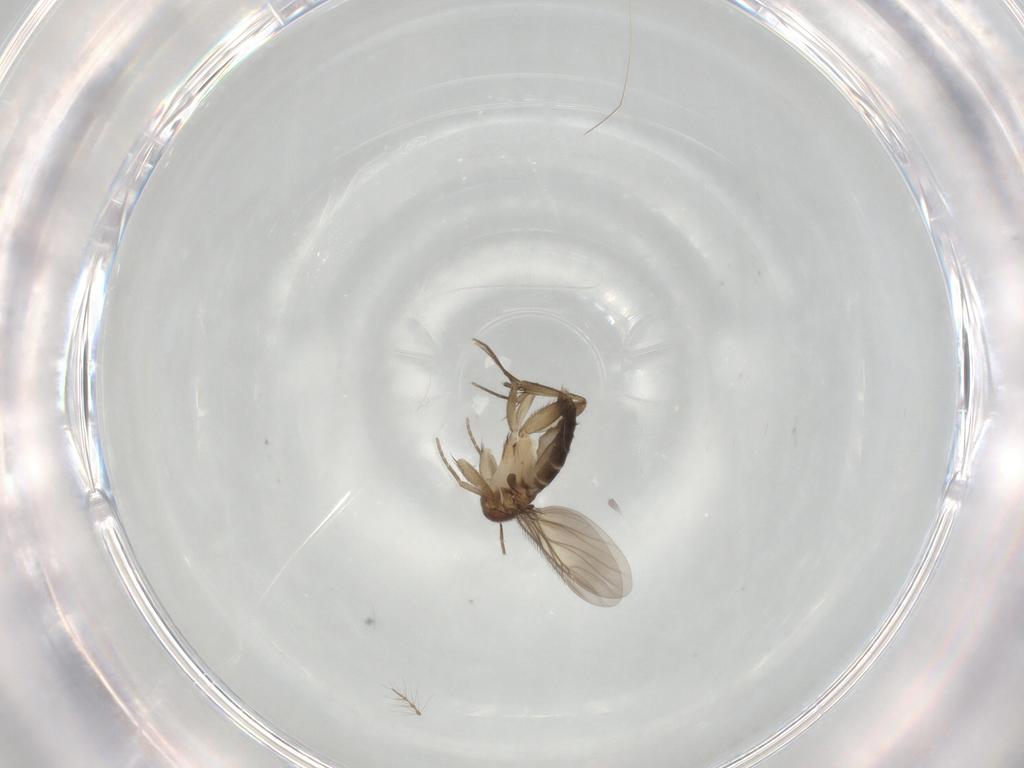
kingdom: Animalia
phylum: Arthropoda
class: Insecta
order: Diptera
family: Phoridae
